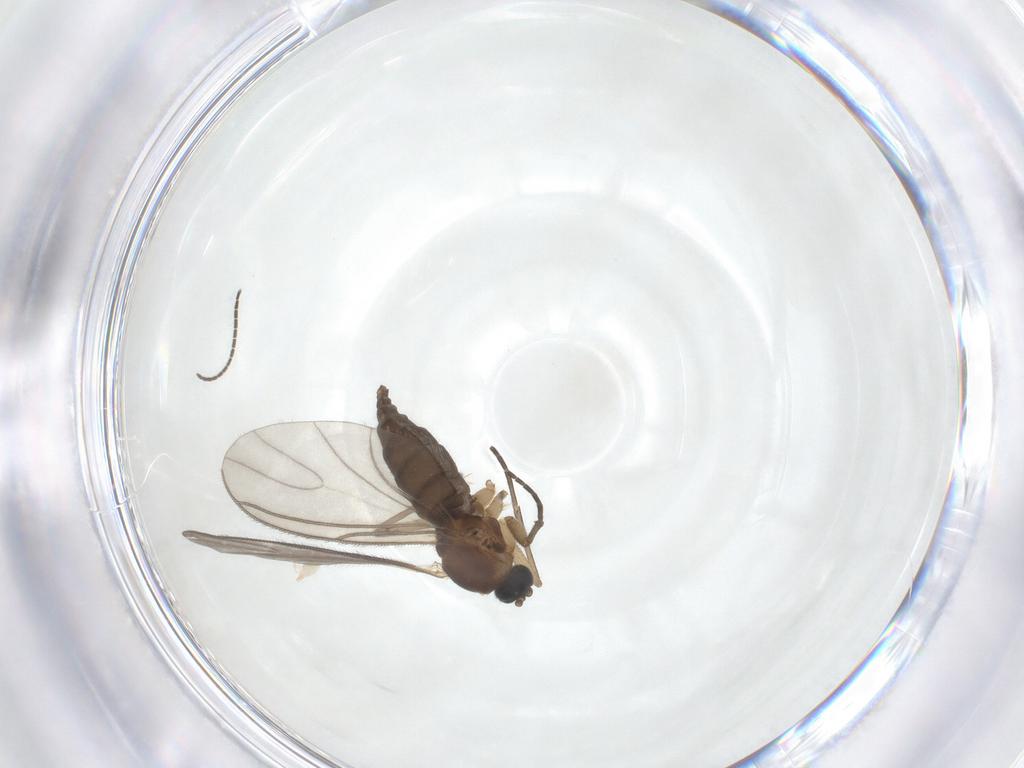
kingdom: Animalia
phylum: Arthropoda
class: Insecta
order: Diptera
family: Sciaridae
